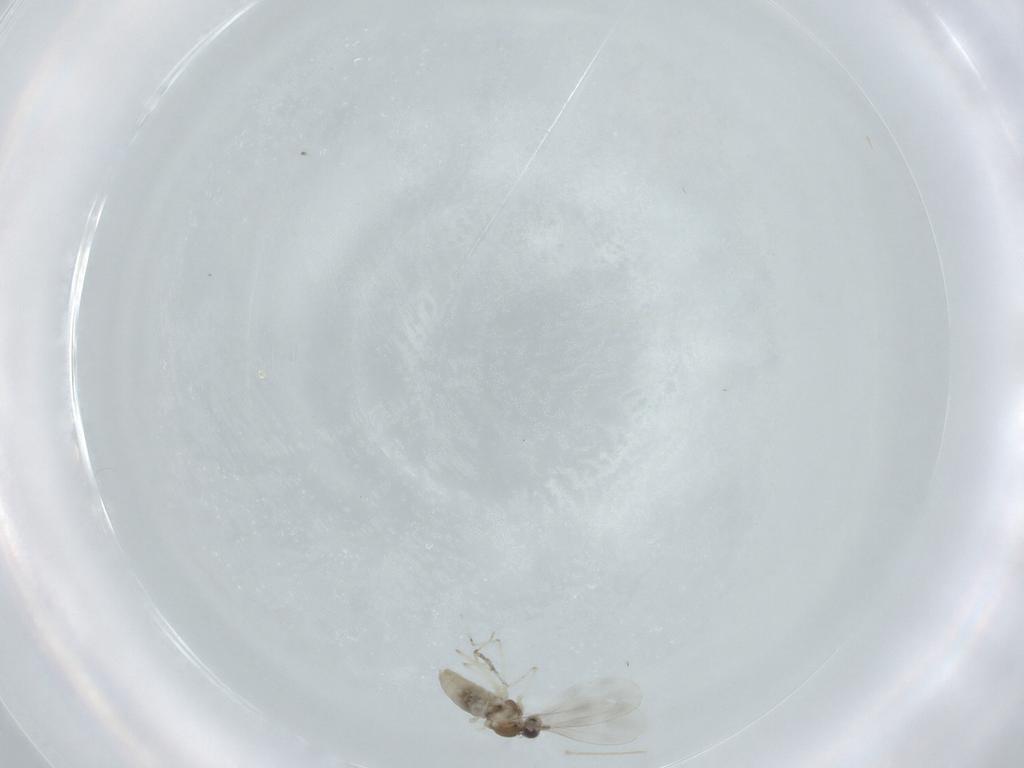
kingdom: Animalia
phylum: Arthropoda
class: Insecta
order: Diptera
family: Cecidomyiidae
